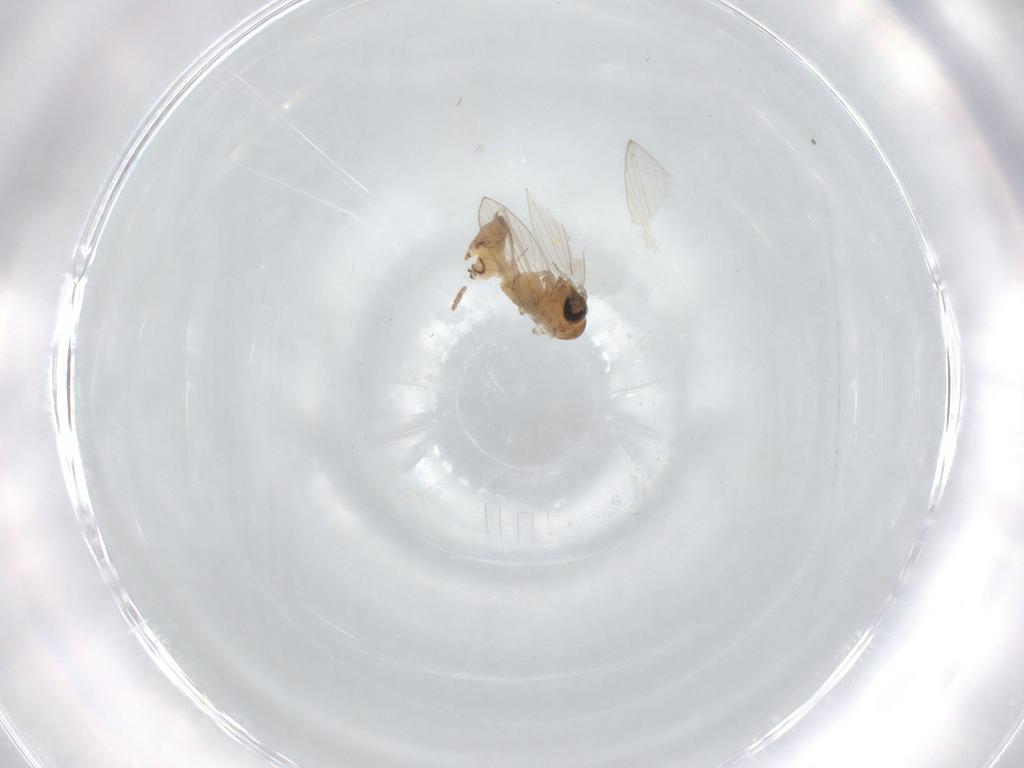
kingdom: Animalia
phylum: Arthropoda
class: Insecta
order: Diptera
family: Psychodidae
